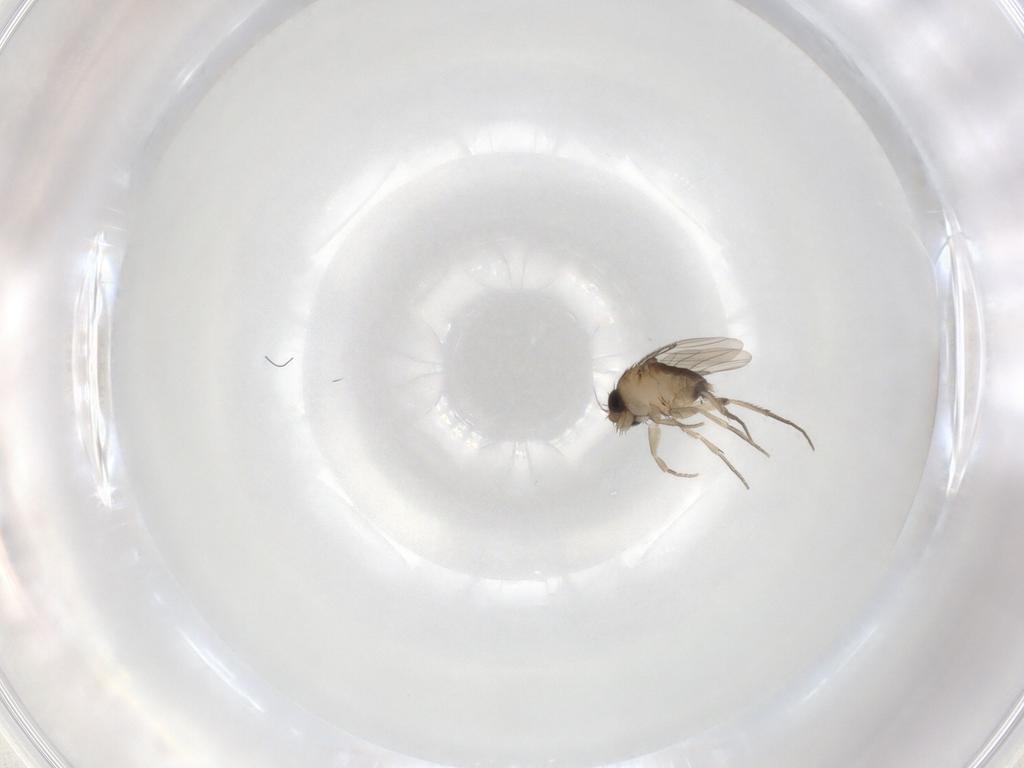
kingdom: Animalia
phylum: Arthropoda
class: Insecta
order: Diptera
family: Phoridae
